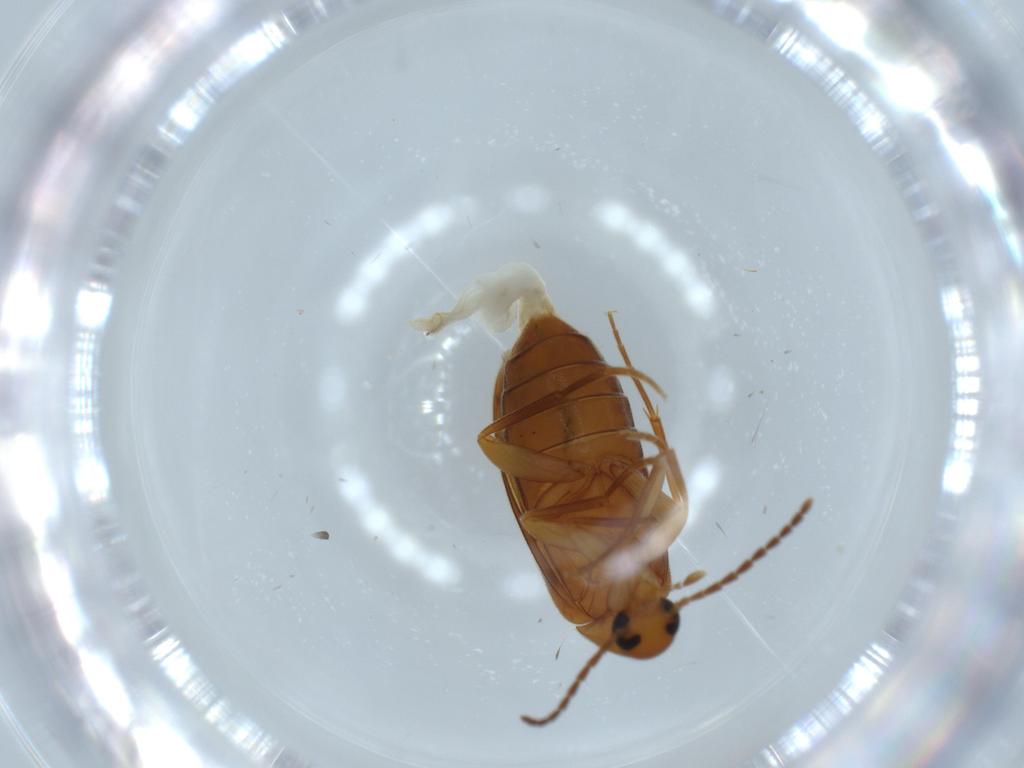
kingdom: Animalia
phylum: Arthropoda
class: Insecta
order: Coleoptera
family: Scraptiidae
